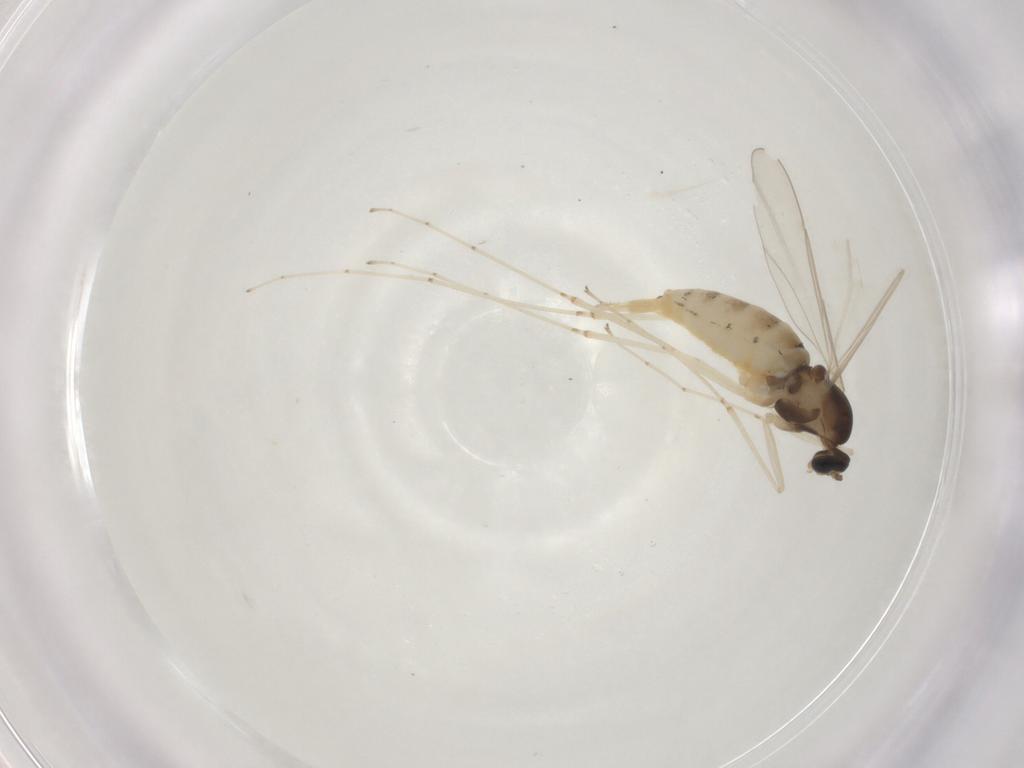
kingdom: Animalia
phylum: Arthropoda
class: Insecta
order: Diptera
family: Cecidomyiidae
